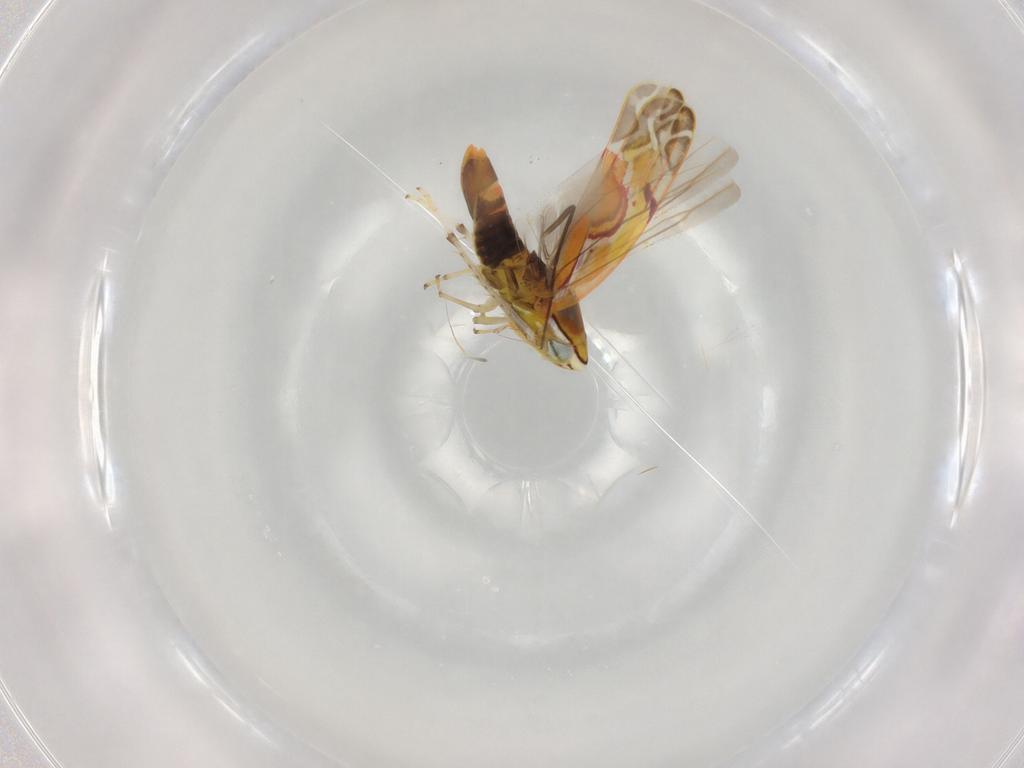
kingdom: Animalia
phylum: Arthropoda
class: Insecta
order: Hemiptera
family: Cicadellidae
